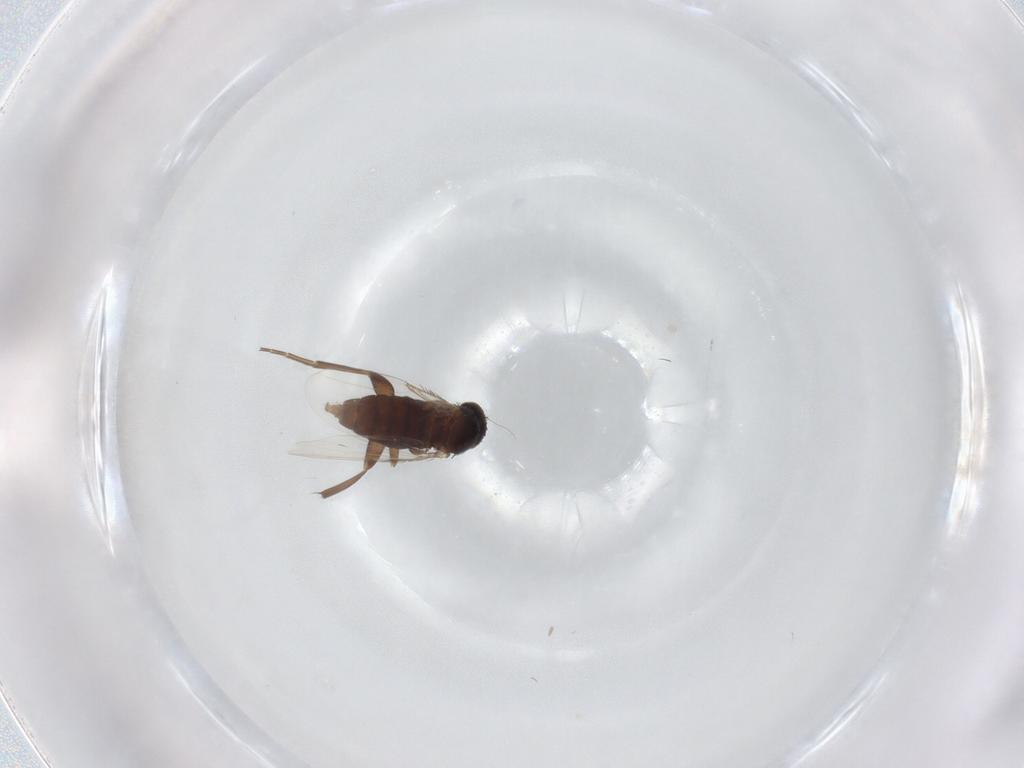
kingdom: Animalia
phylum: Arthropoda
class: Insecta
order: Diptera
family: Phoridae
